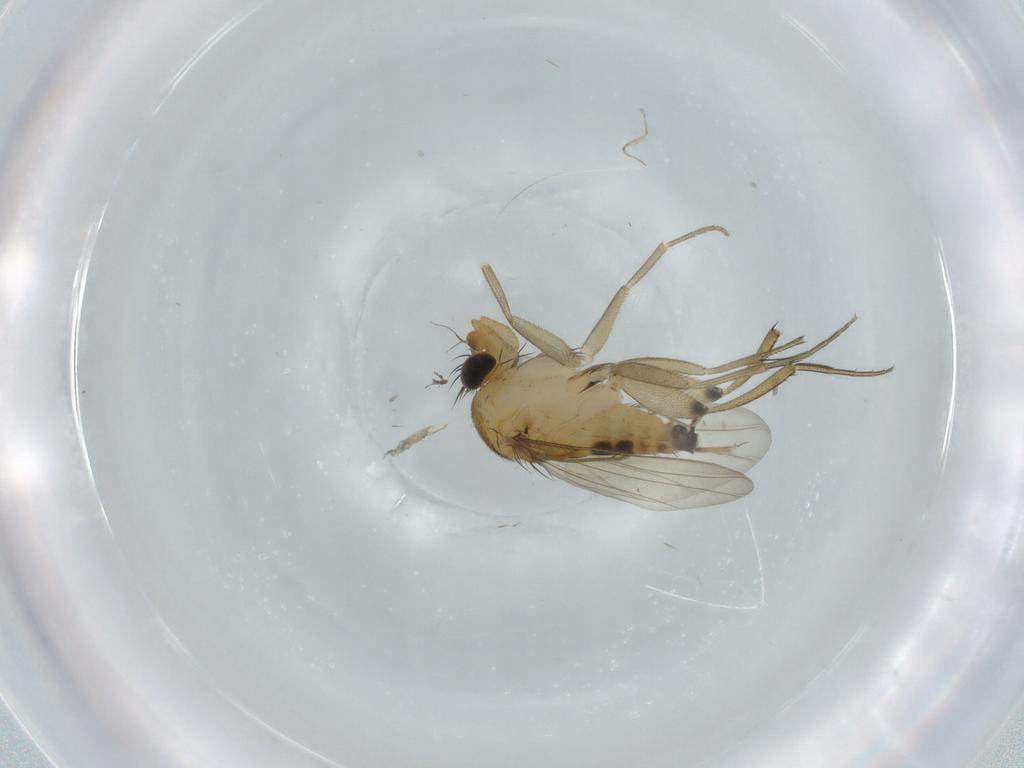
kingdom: Animalia
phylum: Arthropoda
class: Insecta
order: Diptera
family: Phoridae
